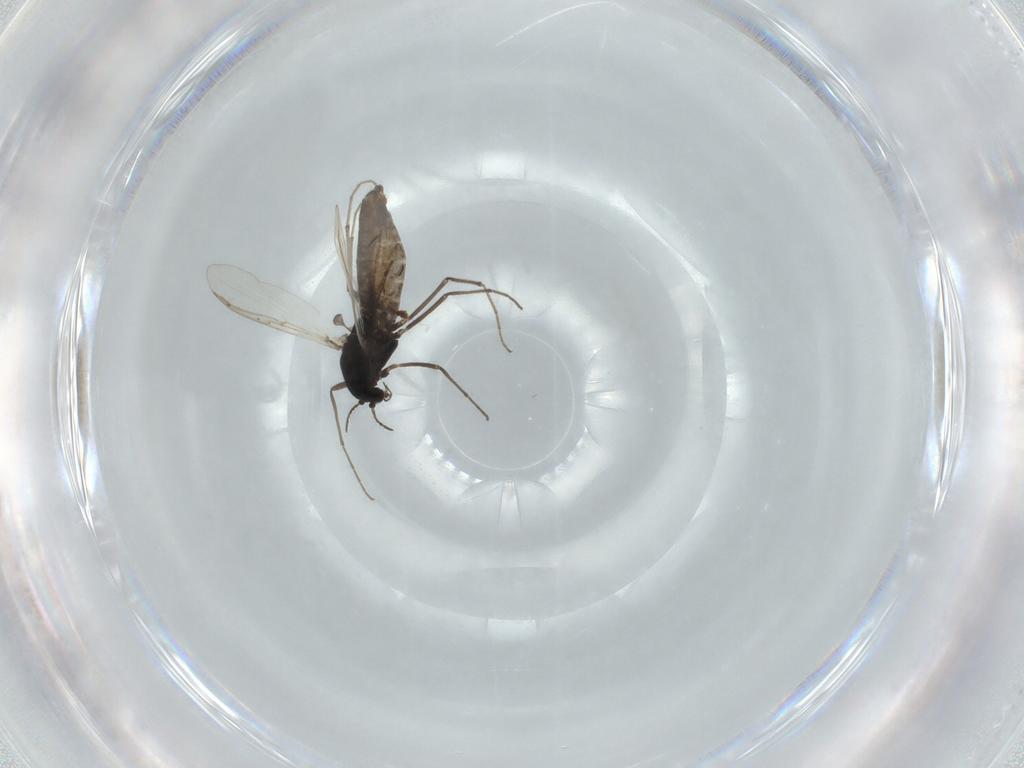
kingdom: Animalia
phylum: Arthropoda
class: Insecta
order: Diptera
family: Chironomidae
